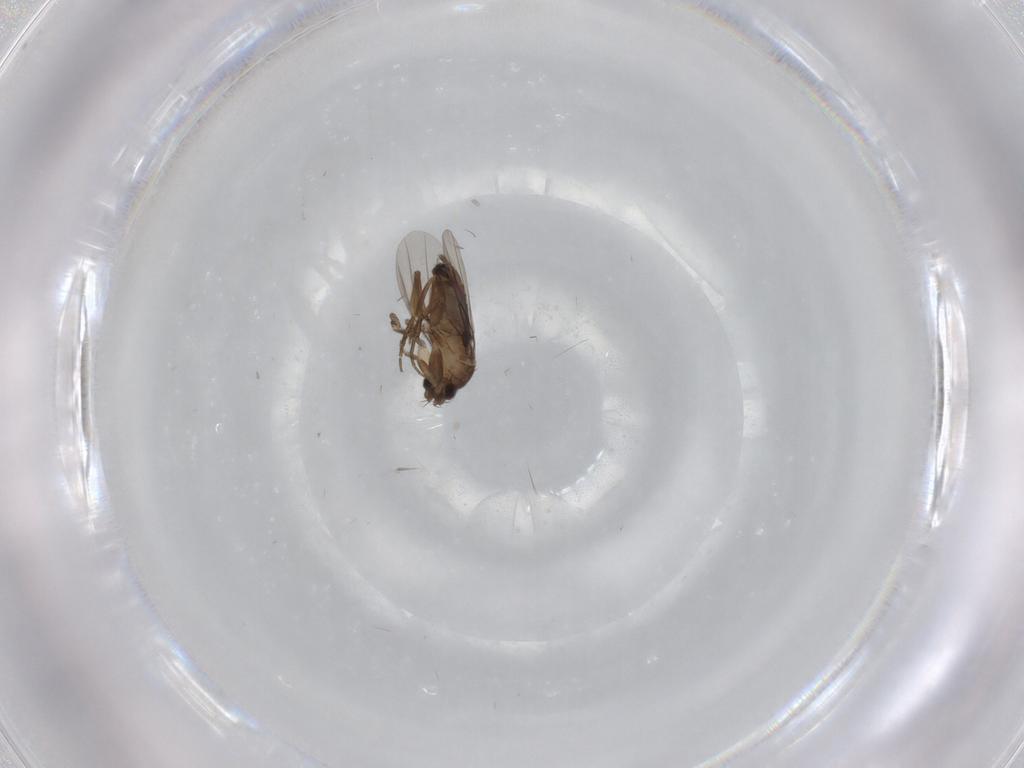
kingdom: Animalia
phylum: Arthropoda
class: Insecta
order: Diptera
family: Phoridae
